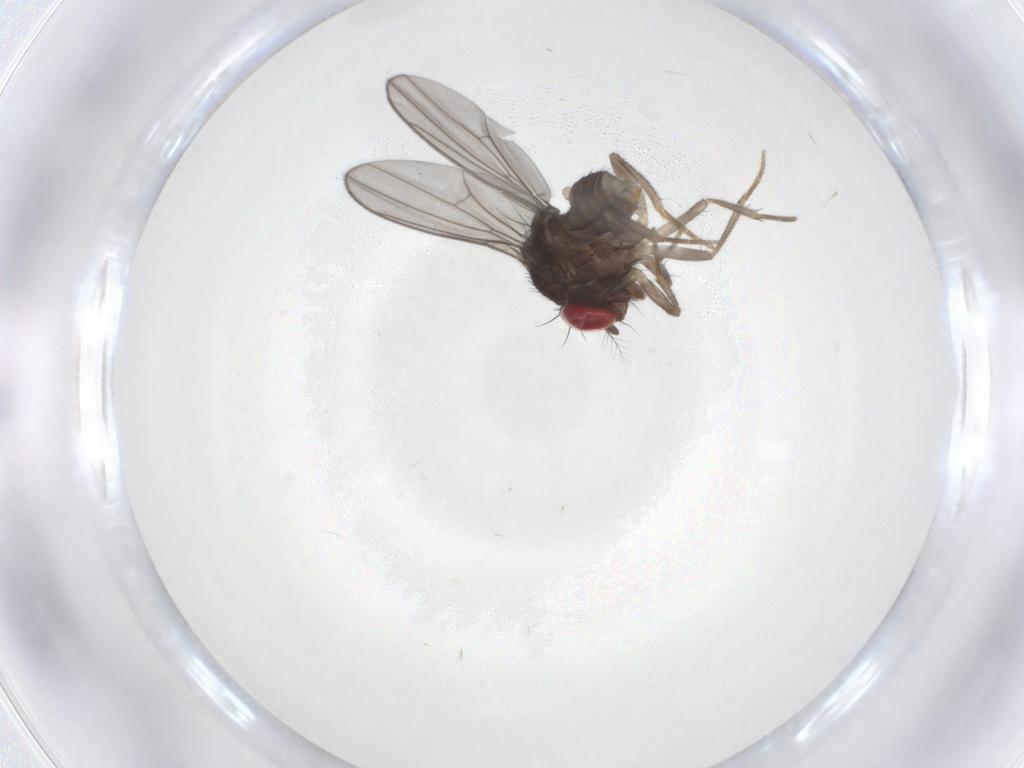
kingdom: Animalia
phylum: Arthropoda
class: Insecta
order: Diptera
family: Drosophilidae
